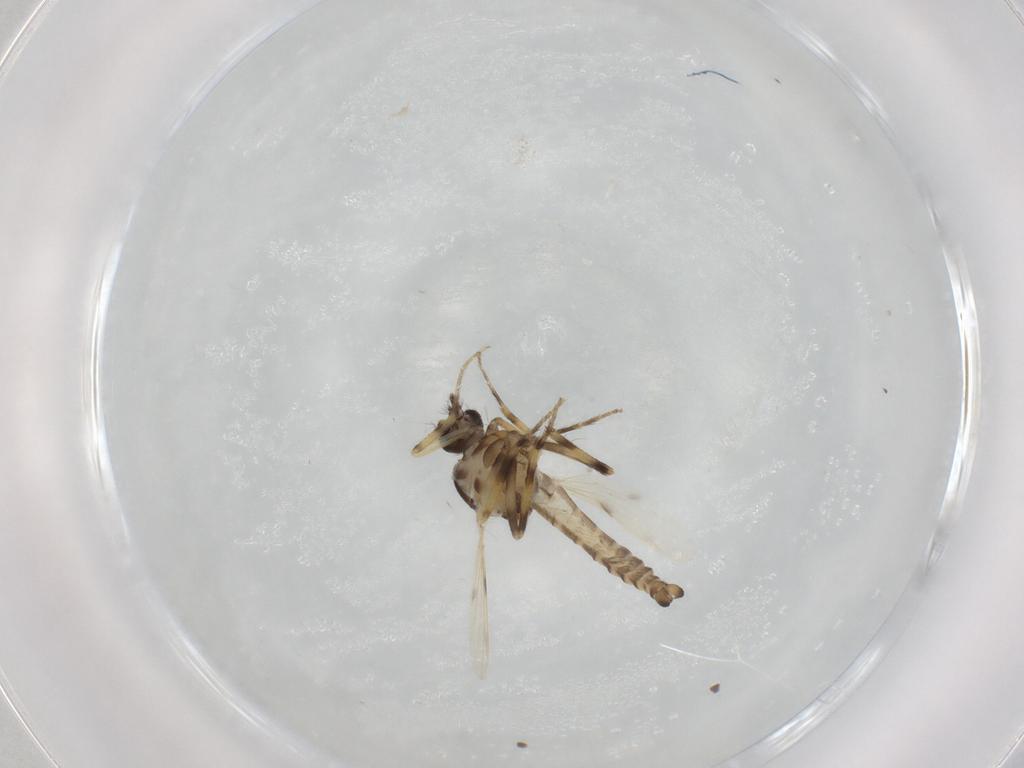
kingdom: Animalia
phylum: Arthropoda
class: Insecta
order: Diptera
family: Ceratopogonidae
